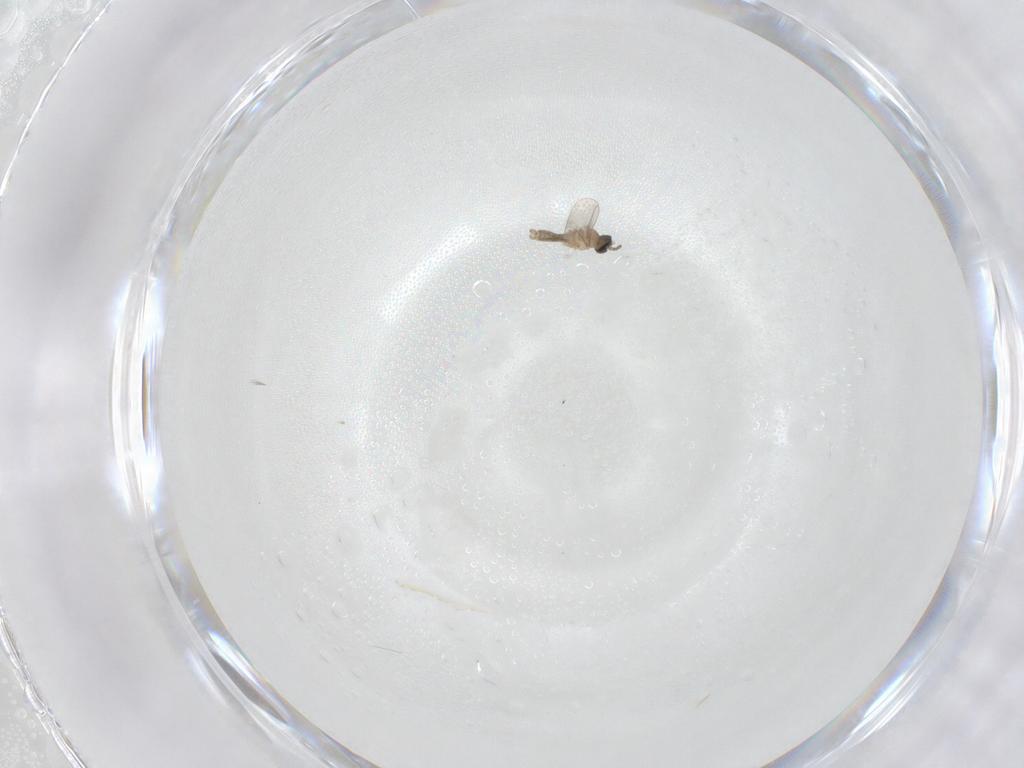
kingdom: Animalia
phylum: Arthropoda
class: Insecta
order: Diptera
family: Cecidomyiidae
